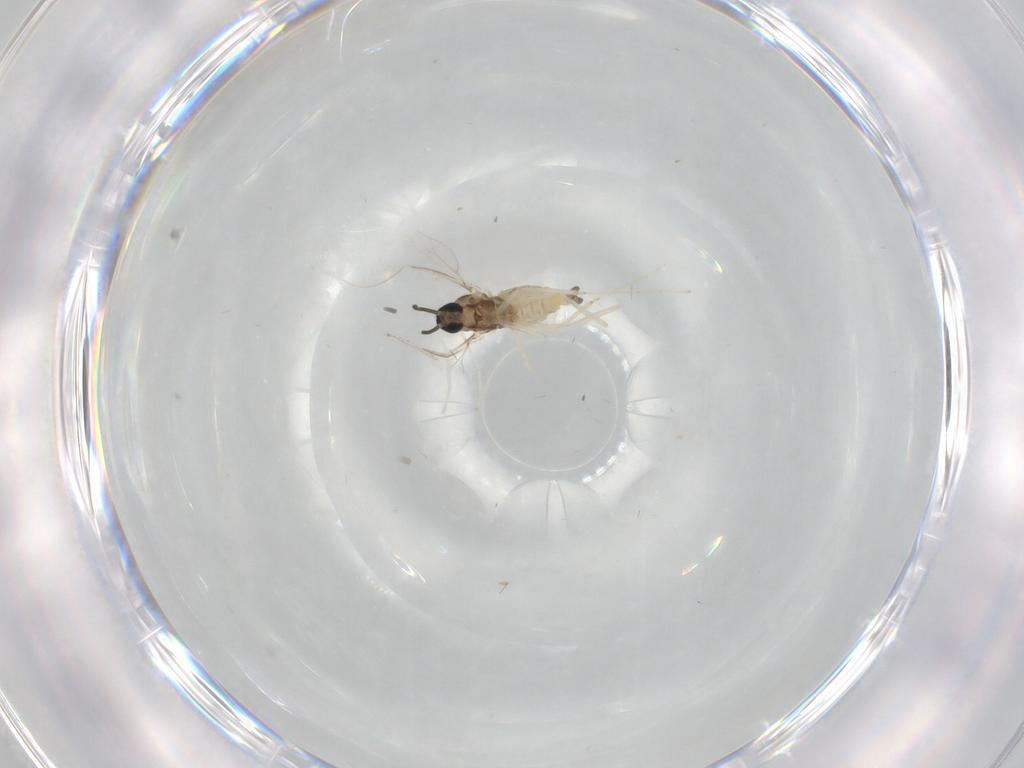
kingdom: Animalia
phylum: Arthropoda
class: Insecta
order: Diptera
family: Cecidomyiidae
